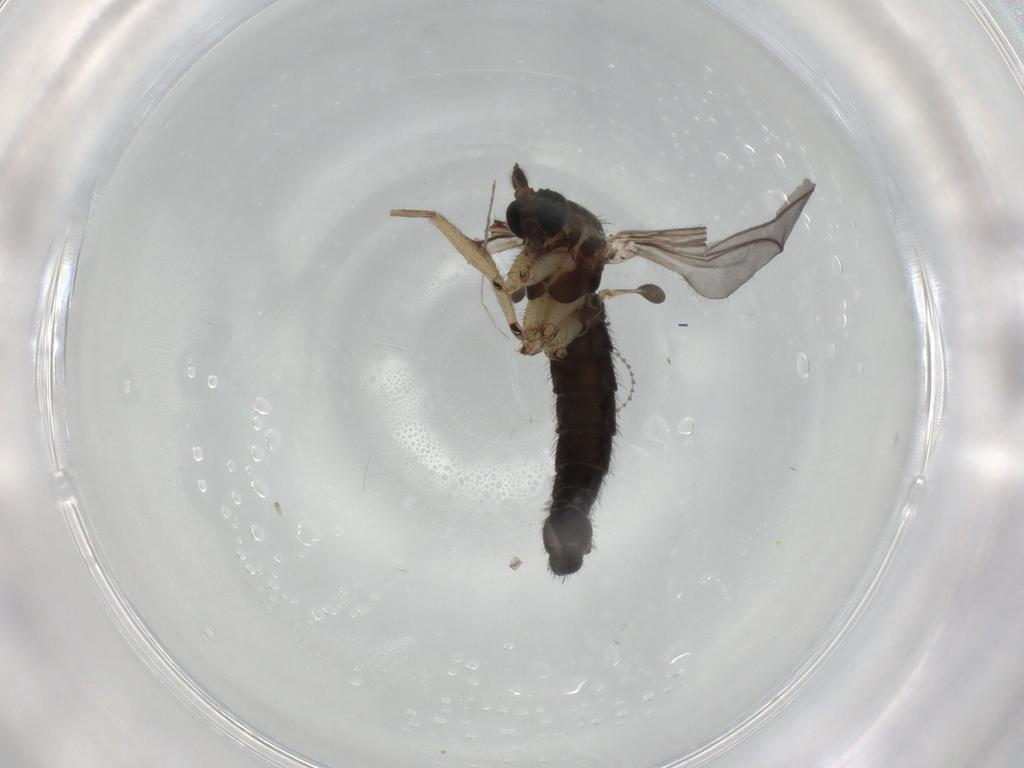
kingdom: Animalia
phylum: Arthropoda
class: Insecta
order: Diptera
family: Sciaridae
